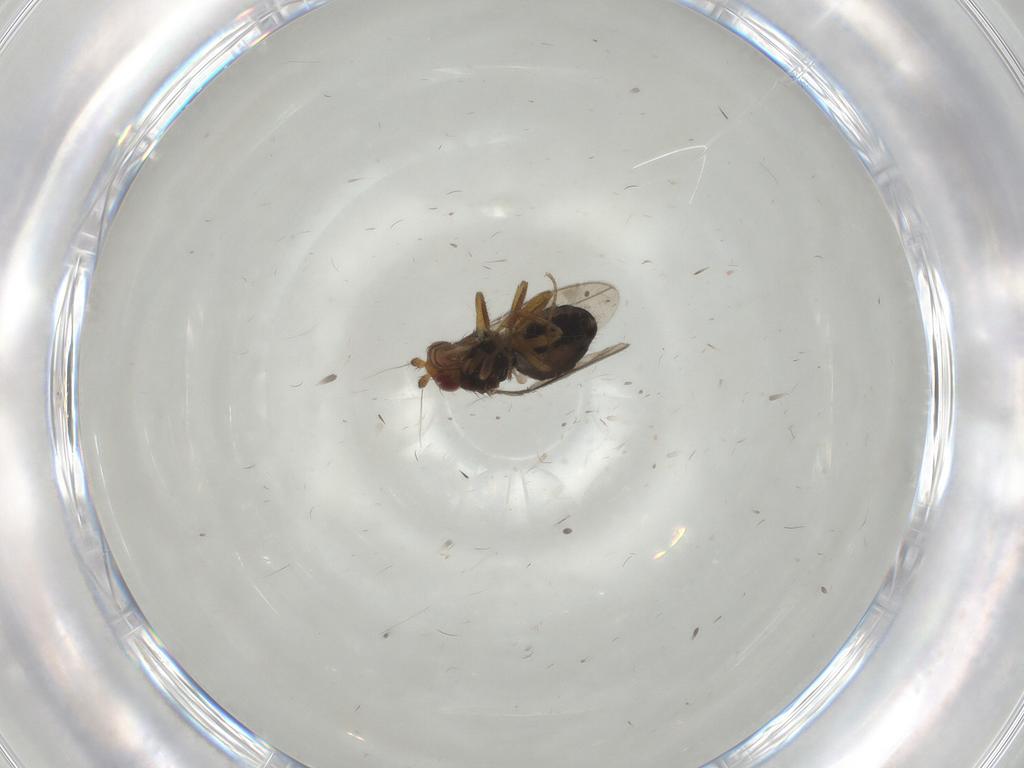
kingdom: Animalia
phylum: Arthropoda
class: Insecta
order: Diptera
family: Sphaeroceridae
